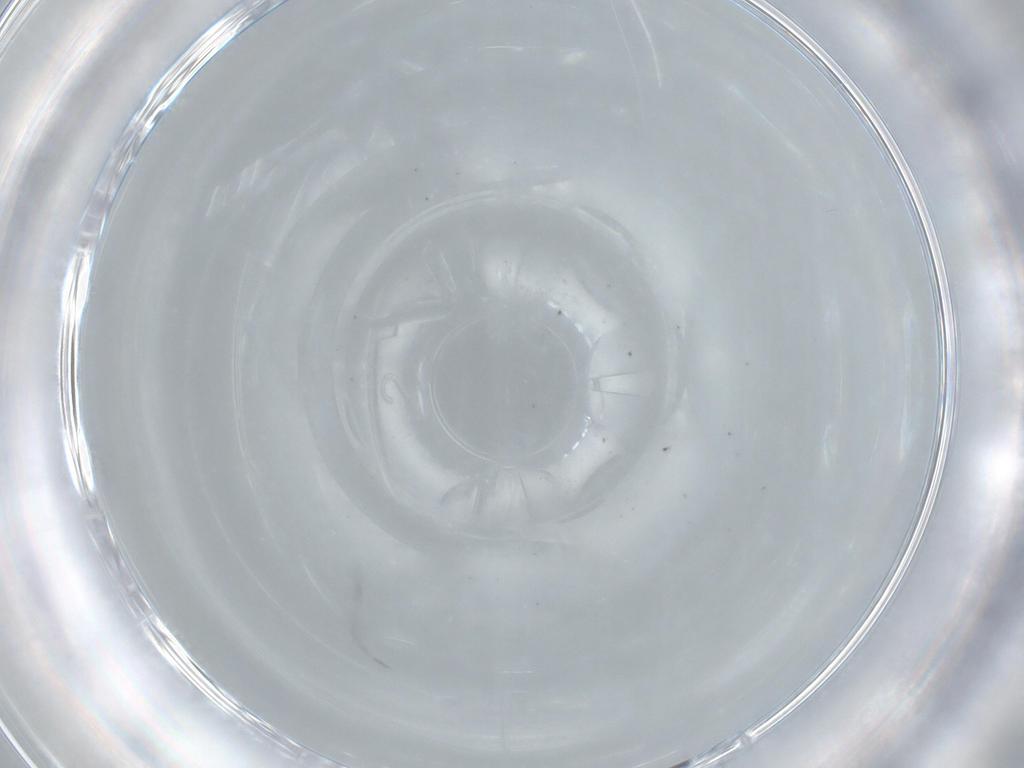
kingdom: Animalia
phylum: Arthropoda
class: Insecta
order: Diptera
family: Cecidomyiidae
